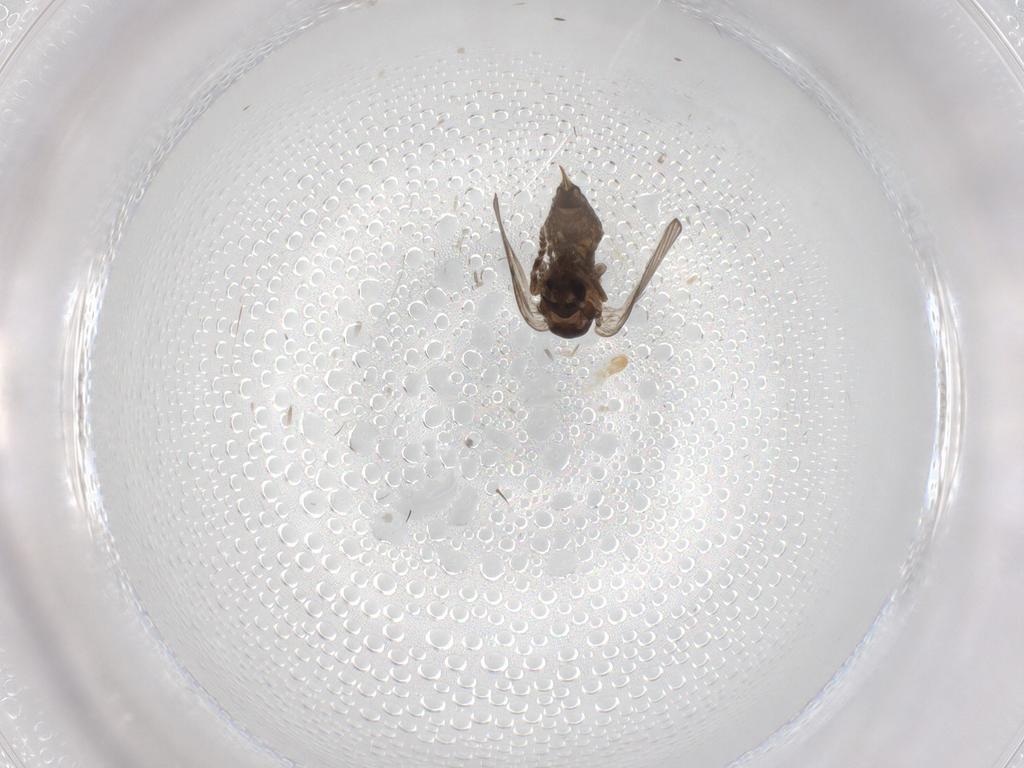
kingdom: Animalia
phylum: Arthropoda
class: Insecta
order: Diptera
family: Psychodidae
